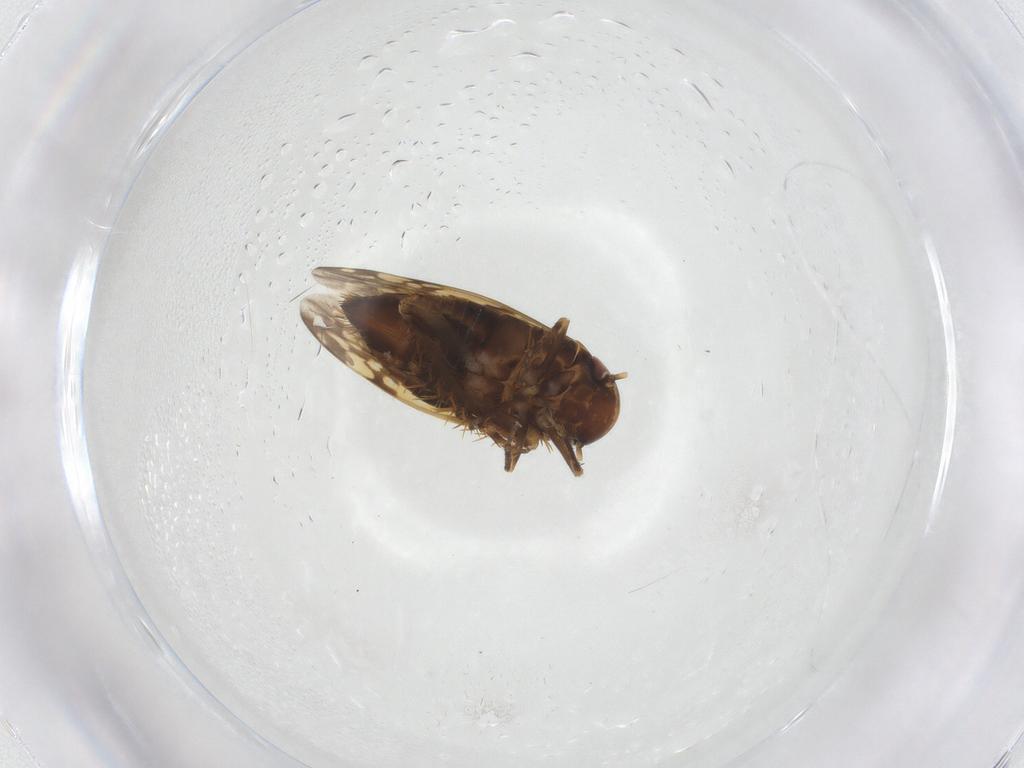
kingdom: Animalia
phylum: Arthropoda
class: Insecta
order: Hemiptera
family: Cicadellidae
